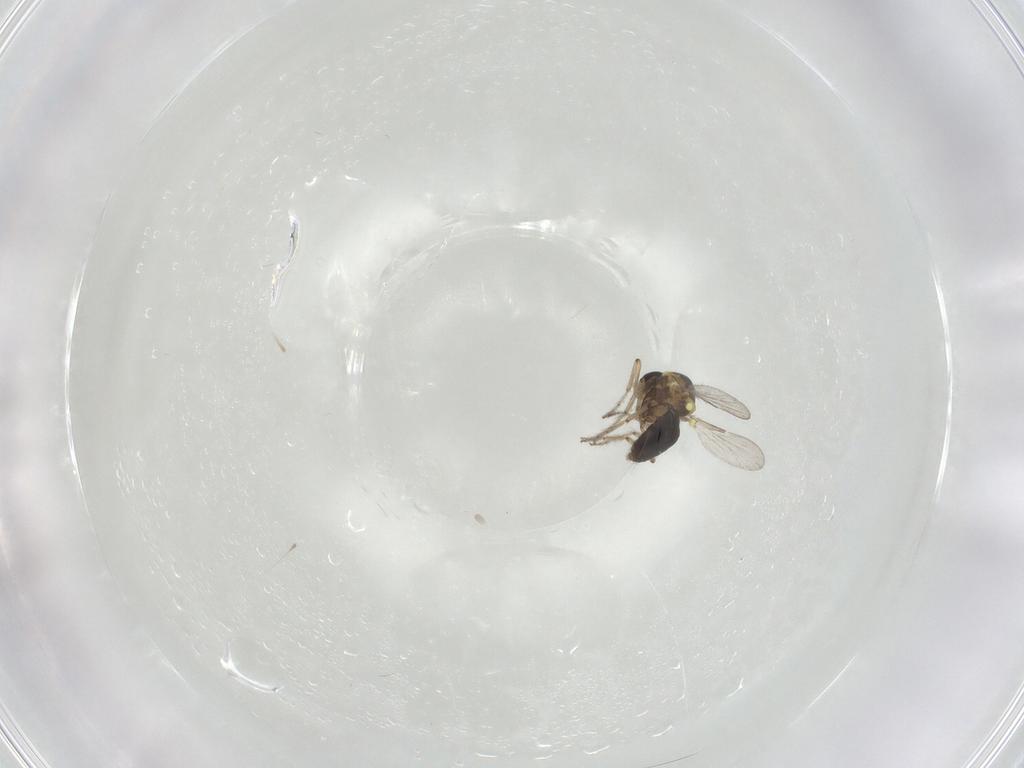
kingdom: Animalia
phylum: Arthropoda
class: Insecta
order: Diptera
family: Ceratopogonidae
